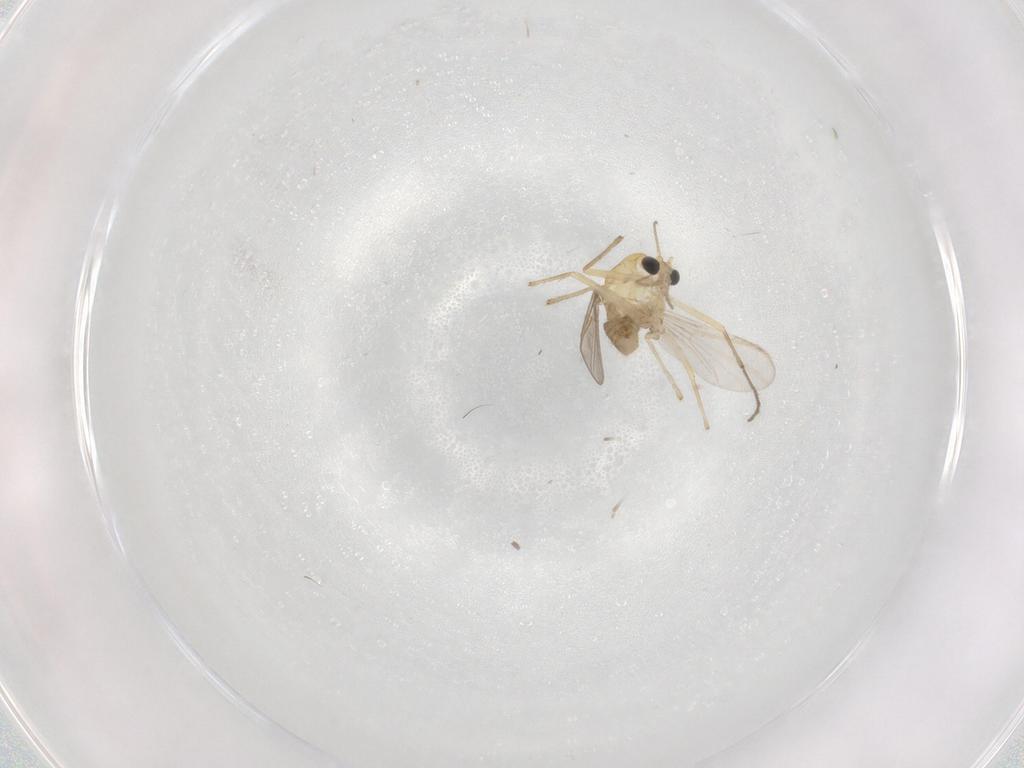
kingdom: Animalia
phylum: Arthropoda
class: Insecta
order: Diptera
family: Chironomidae
